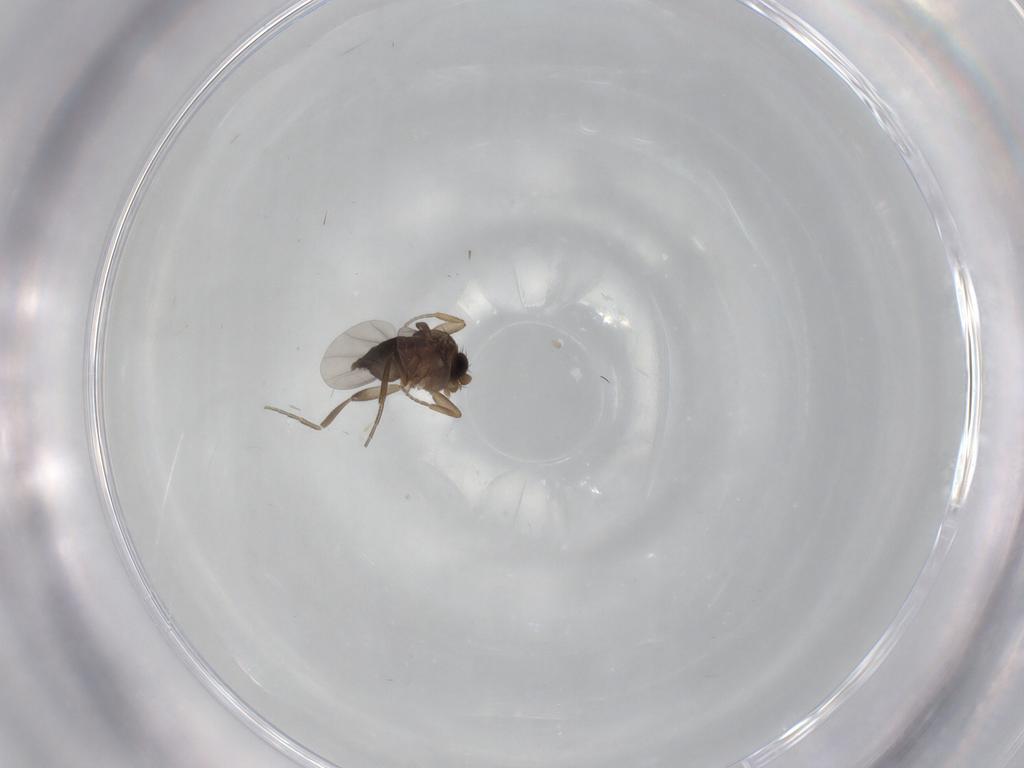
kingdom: Animalia
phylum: Arthropoda
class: Insecta
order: Diptera
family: Phoridae
